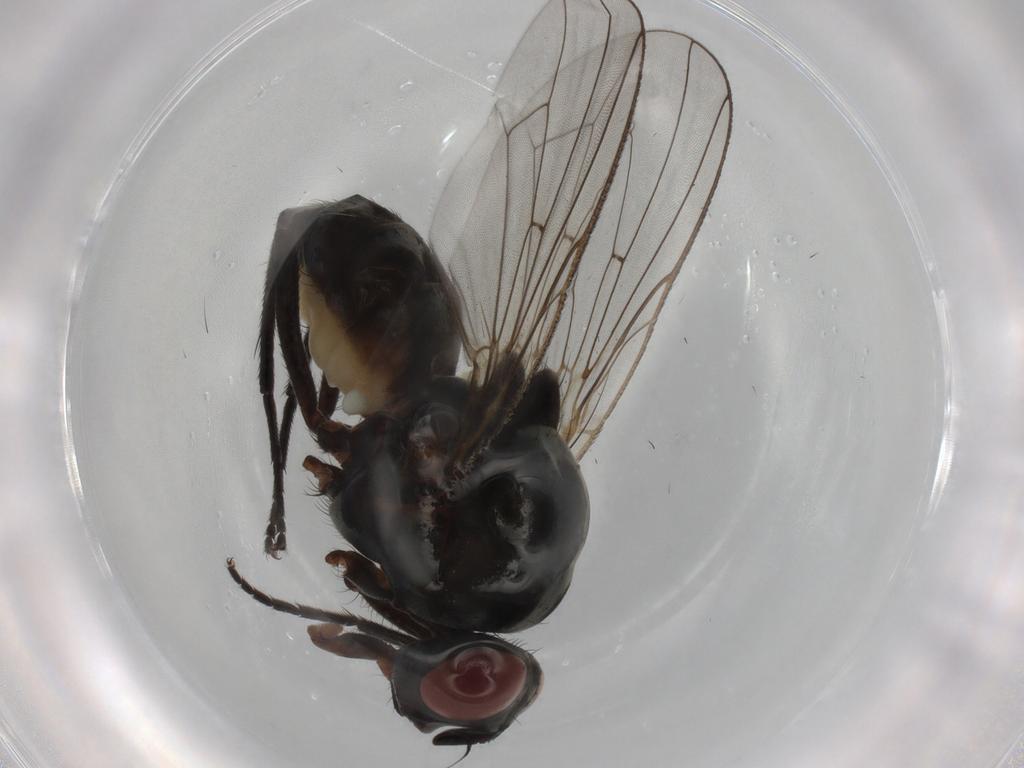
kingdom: Animalia
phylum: Arthropoda
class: Insecta
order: Diptera
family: Anthomyiidae
